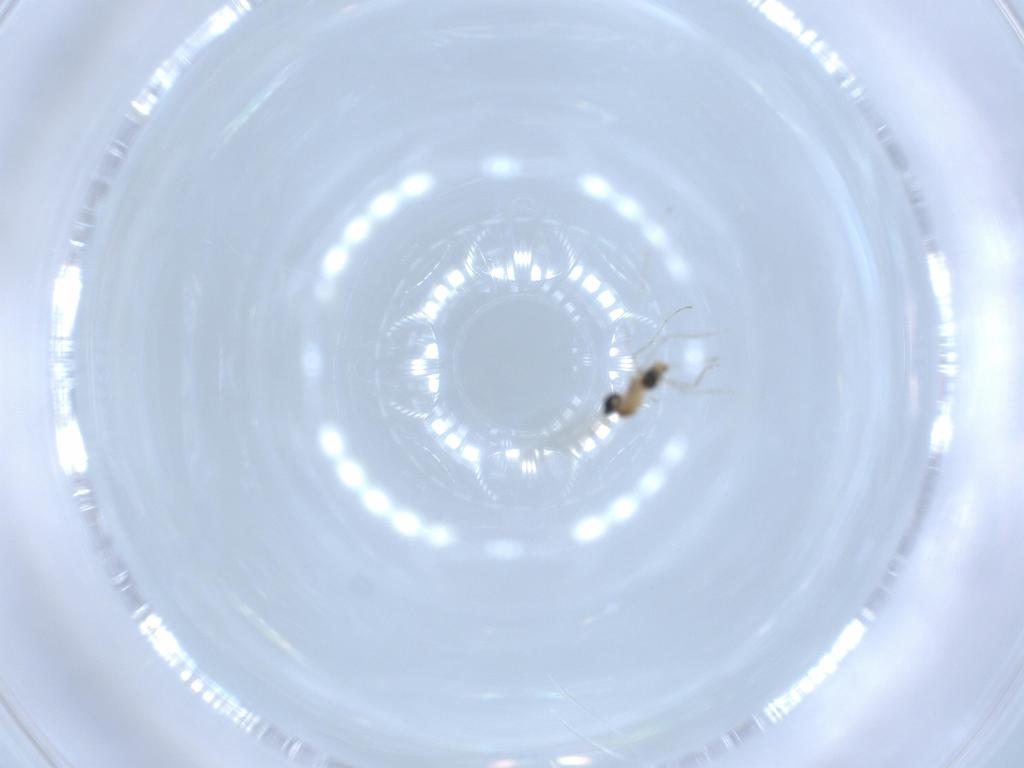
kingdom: Animalia
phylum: Arthropoda
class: Insecta
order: Diptera
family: Cecidomyiidae
